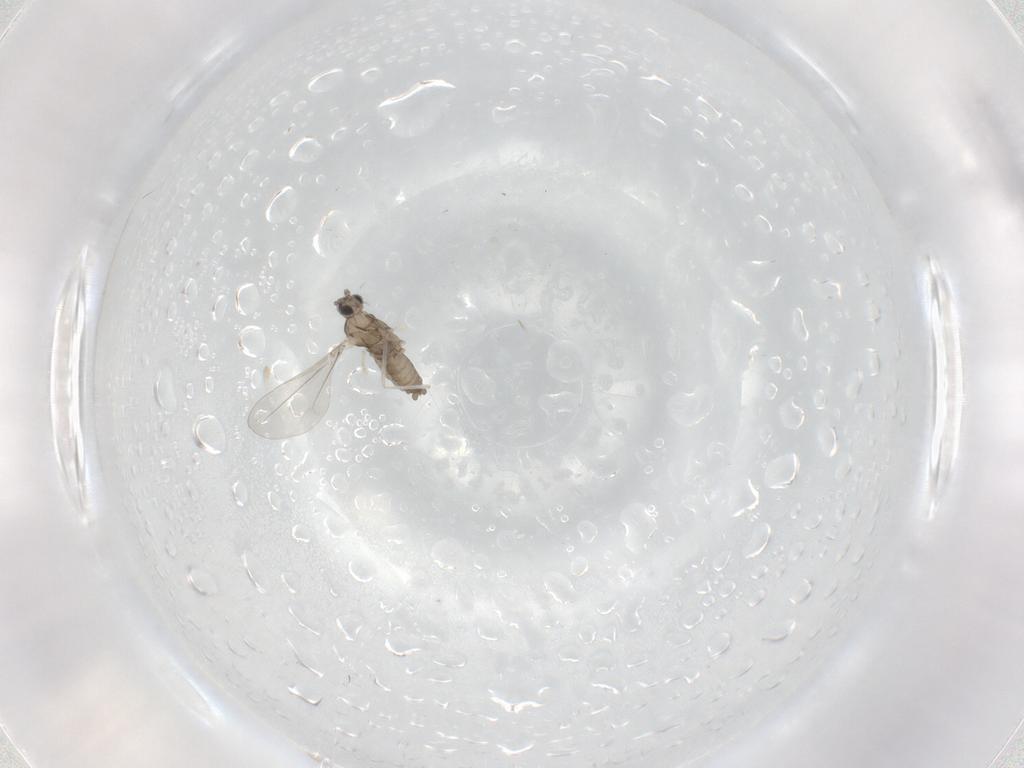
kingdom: Animalia
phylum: Arthropoda
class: Insecta
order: Diptera
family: Cecidomyiidae
